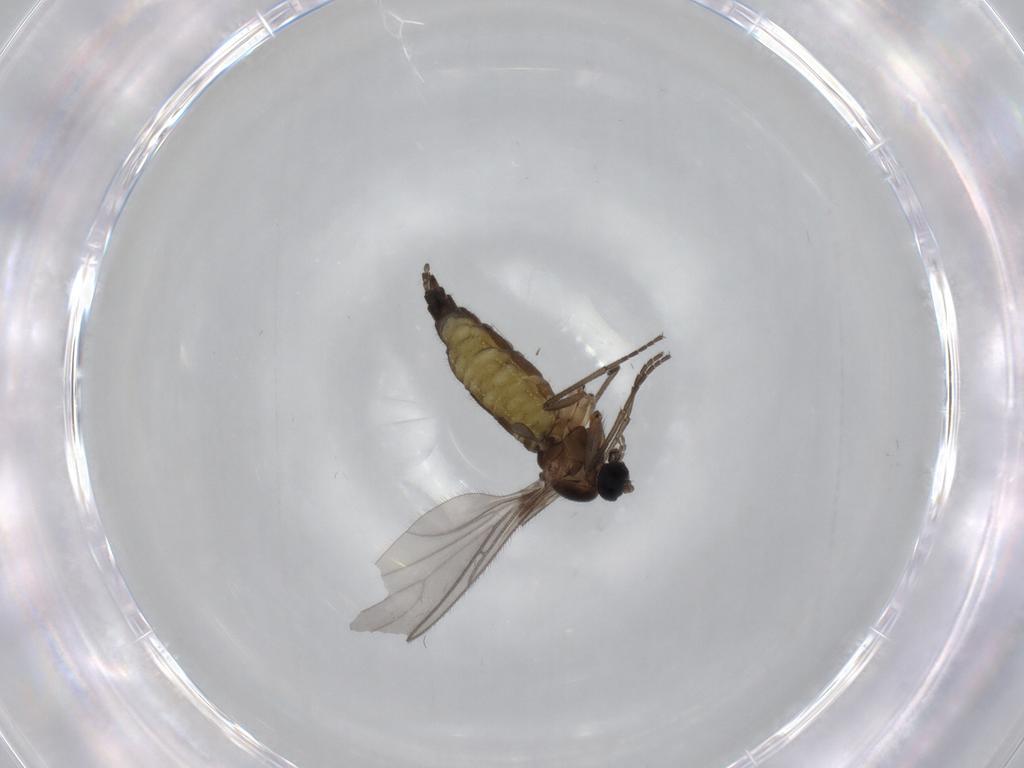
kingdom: Animalia
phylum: Arthropoda
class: Insecta
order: Diptera
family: Sciaridae
